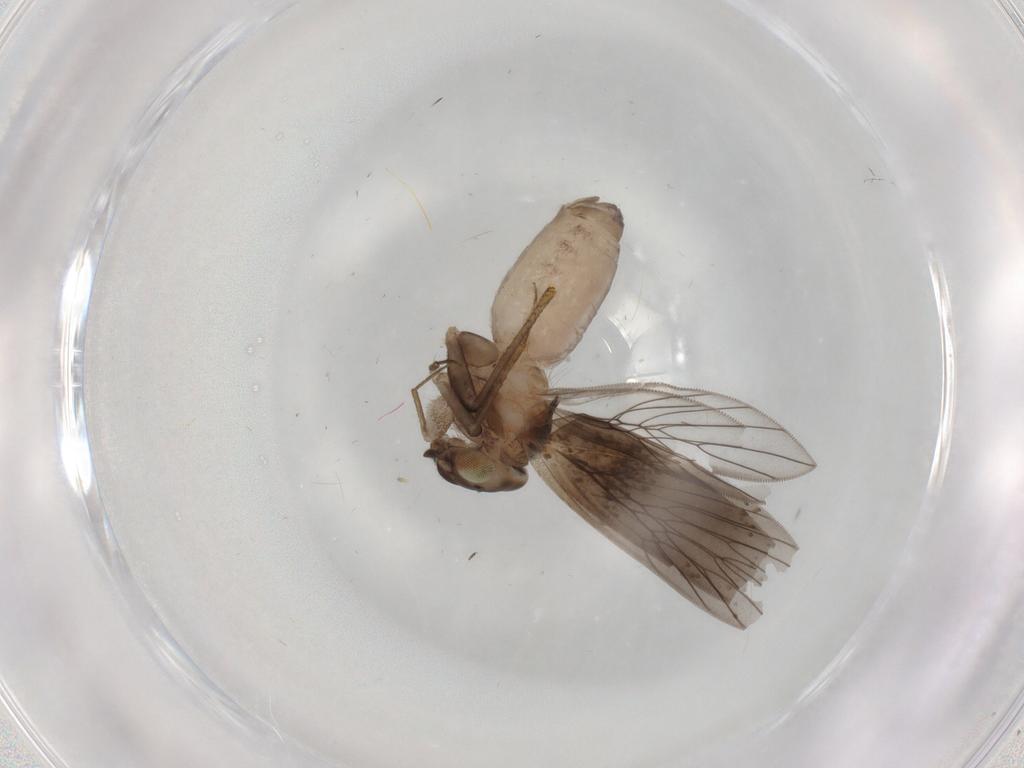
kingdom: Animalia
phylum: Arthropoda
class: Insecta
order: Psocodea
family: Lepidopsocidae
